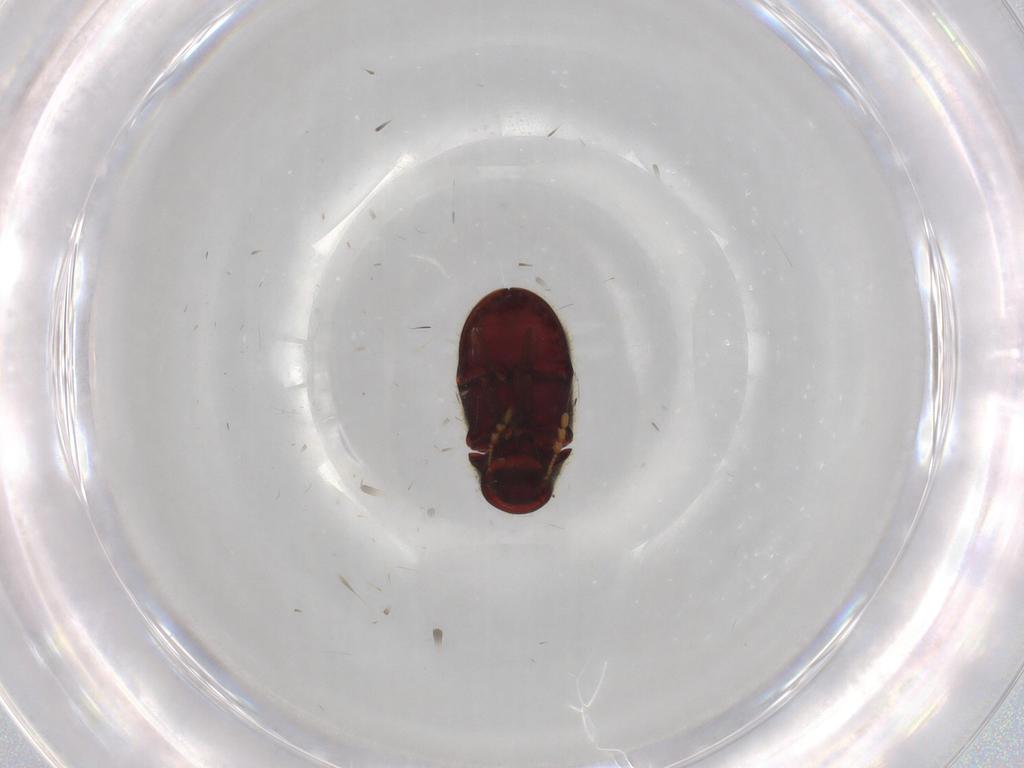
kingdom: Animalia
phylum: Arthropoda
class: Insecta
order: Coleoptera
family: Ptinidae
